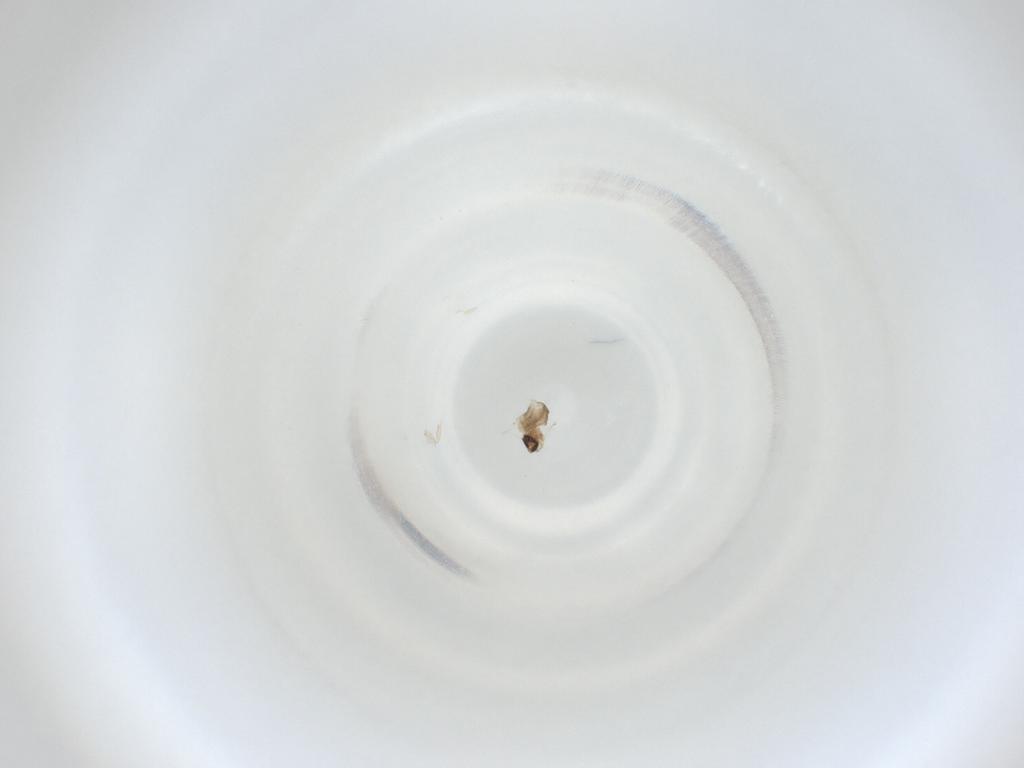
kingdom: Animalia
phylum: Arthropoda
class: Insecta
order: Diptera
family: Cecidomyiidae
